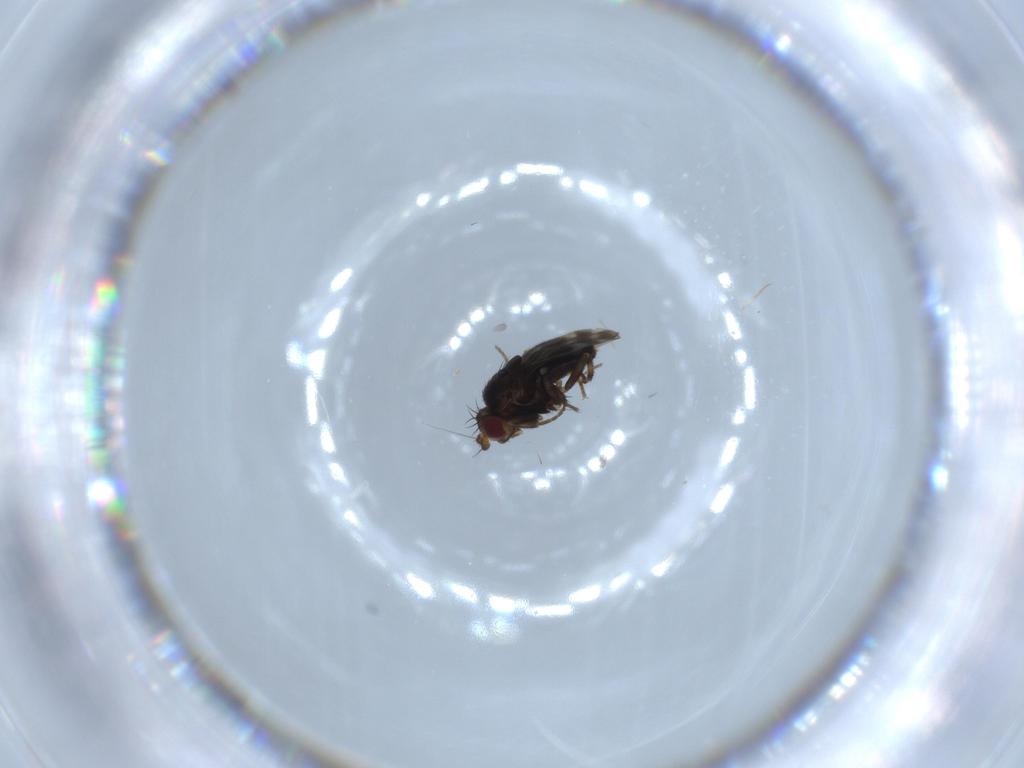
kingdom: Animalia
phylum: Arthropoda
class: Insecta
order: Diptera
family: Sphaeroceridae
